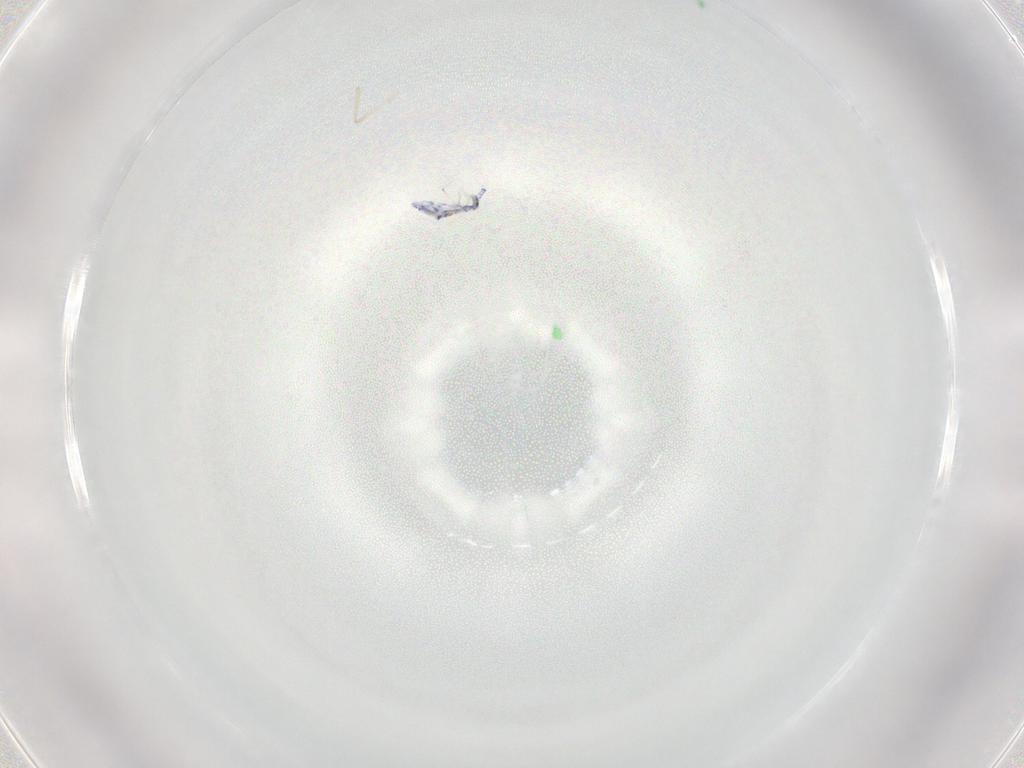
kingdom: Animalia
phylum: Arthropoda
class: Collembola
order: Entomobryomorpha
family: Entomobryidae
